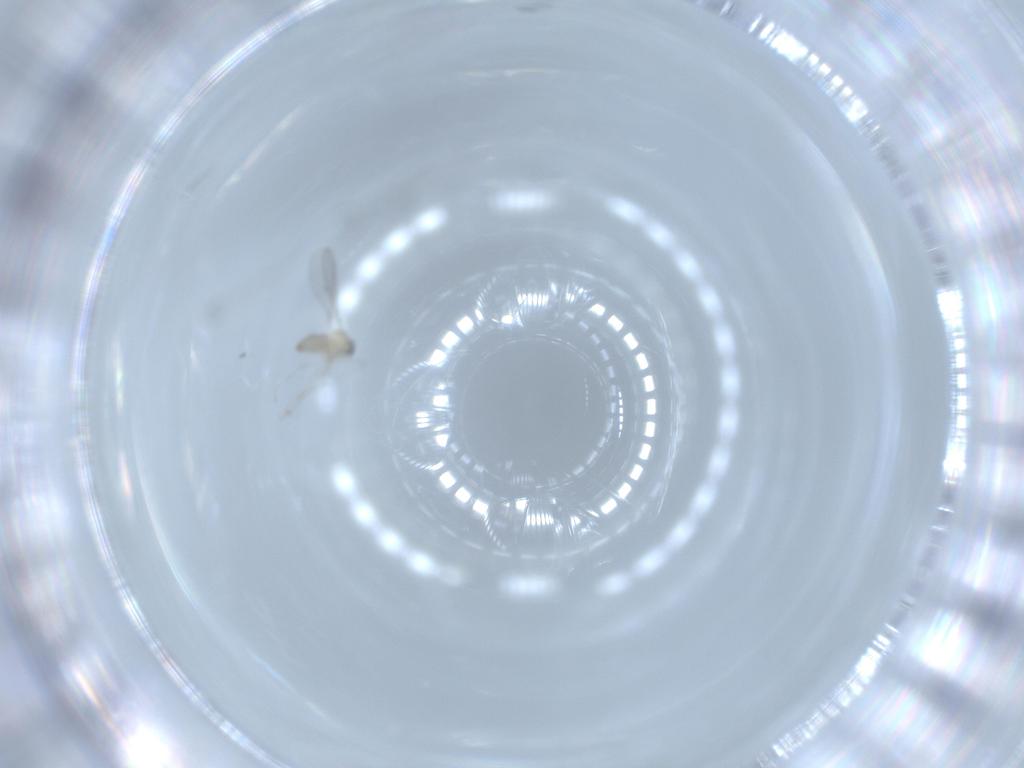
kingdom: Animalia
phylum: Arthropoda
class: Insecta
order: Diptera
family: Cecidomyiidae
